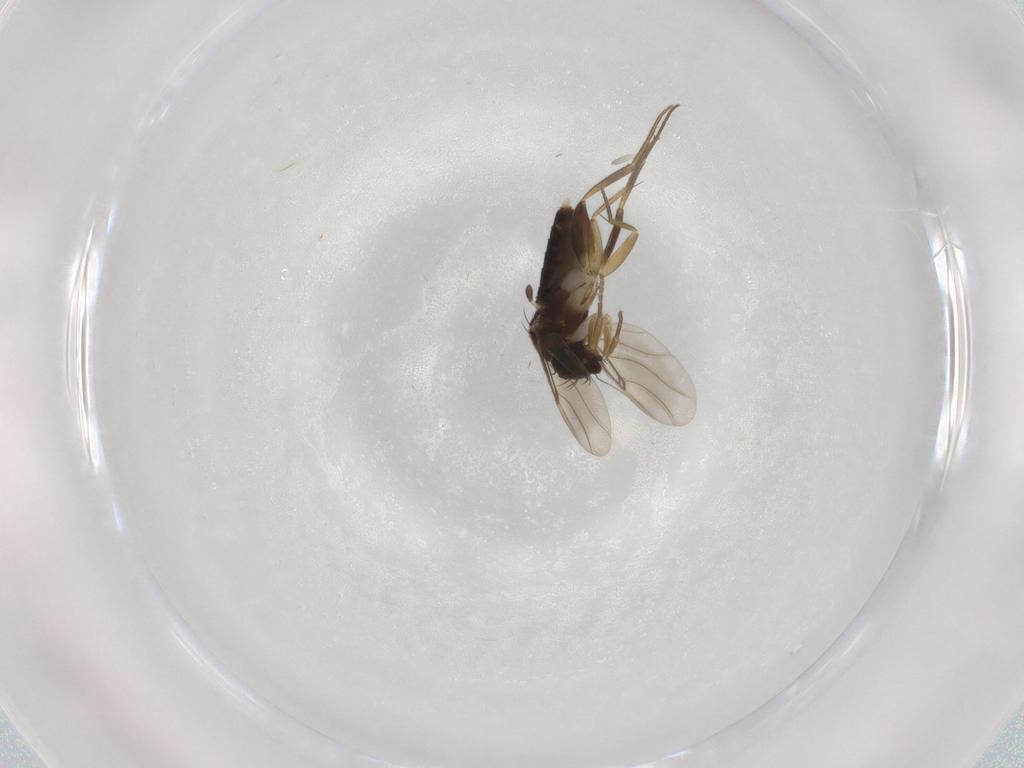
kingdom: Animalia
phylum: Arthropoda
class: Insecta
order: Diptera
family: Phoridae
